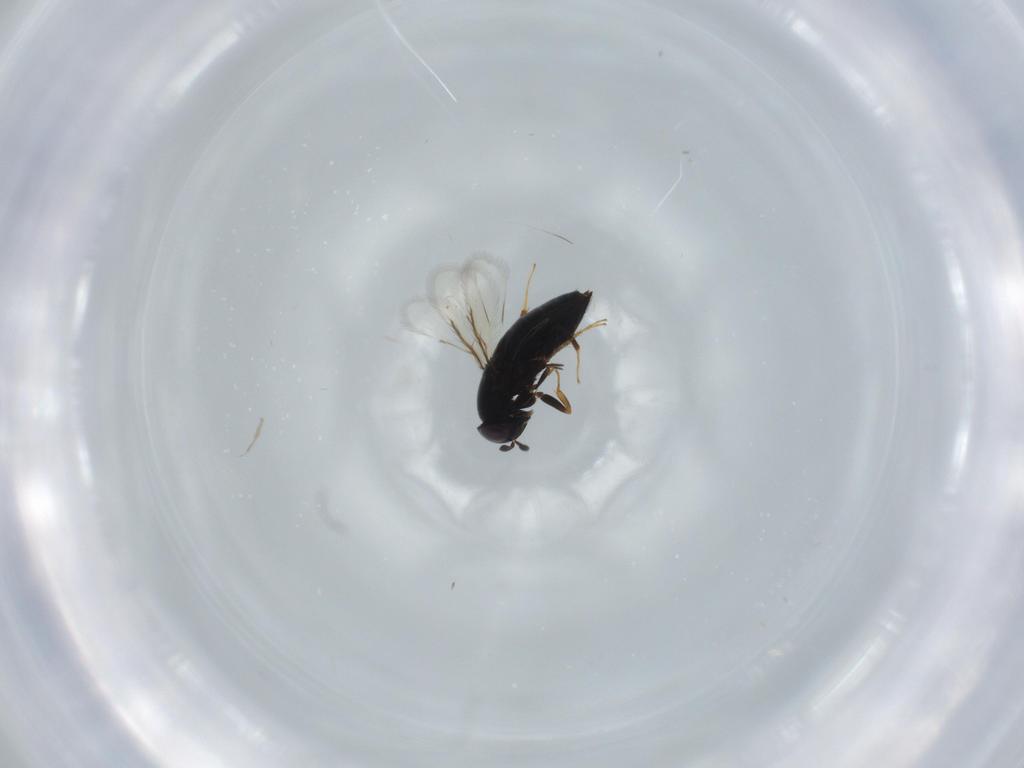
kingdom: Animalia
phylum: Arthropoda
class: Insecta
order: Hymenoptera
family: Signiphoridae
